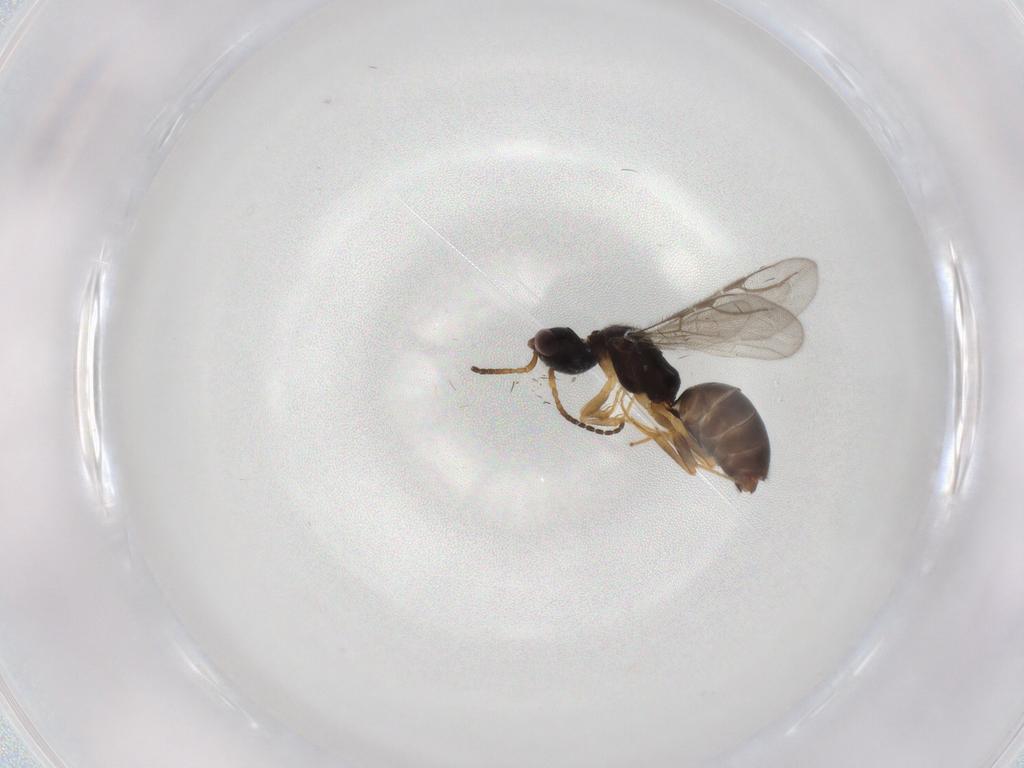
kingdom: Animalia
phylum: Arthropoda
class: Insecta
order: Hymenoptera
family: Bethylidae
